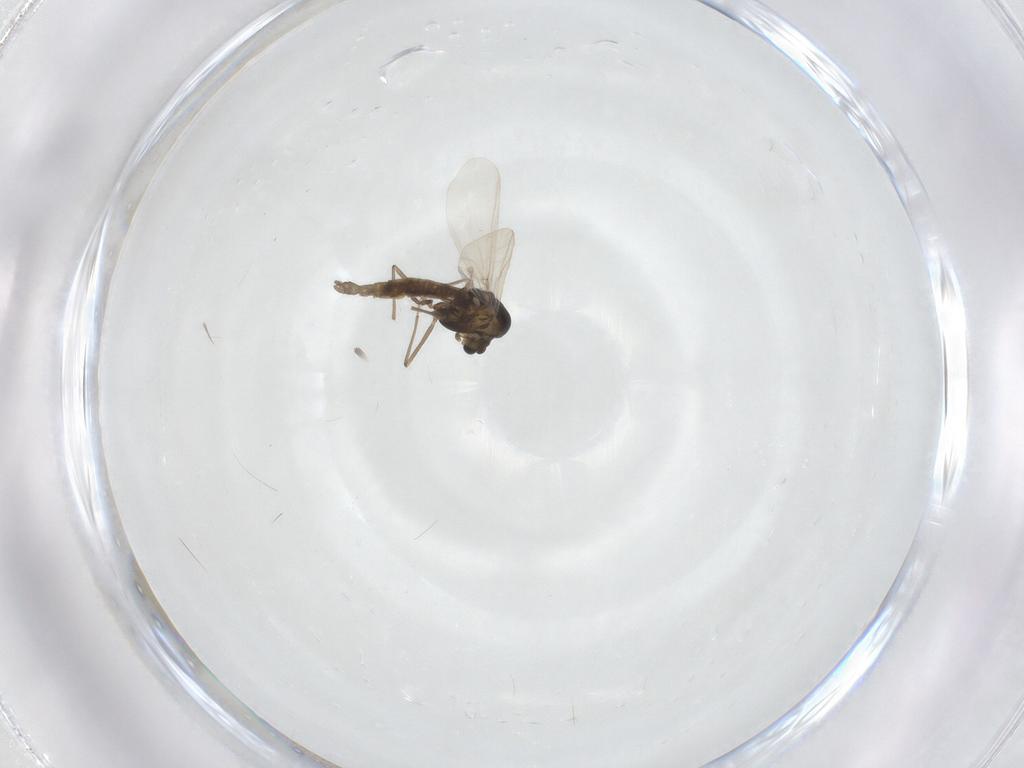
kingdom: Animalia
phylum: Arthropoda
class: Insecta
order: Diptera
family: Chironomidae
